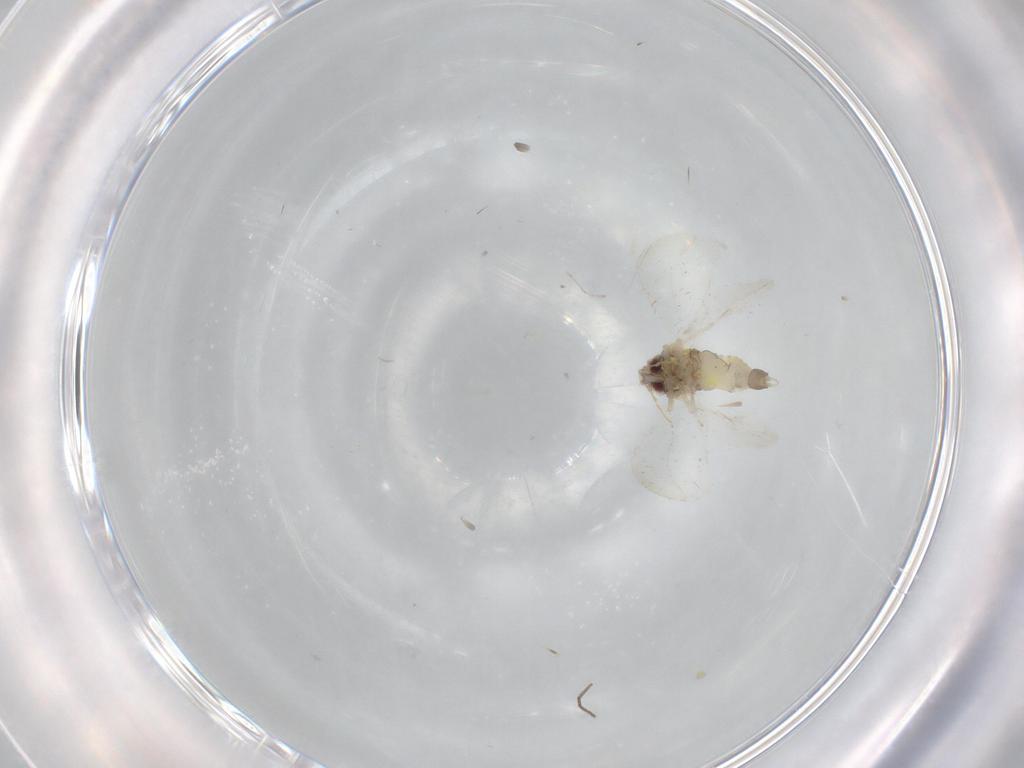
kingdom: Animalia
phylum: Arthropoda
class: Insecta
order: Hemiptera
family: Aleyrodidae
